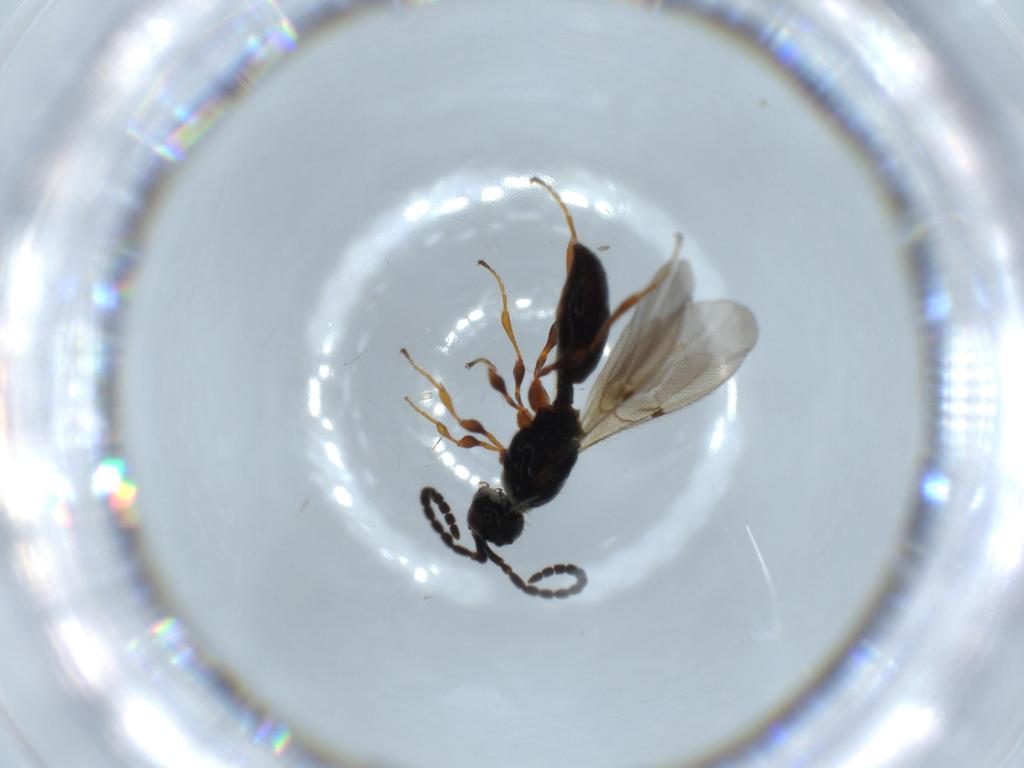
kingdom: Animalia
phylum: Arthropoda
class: Insecta
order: Hymenoptera
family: Diapriidae
